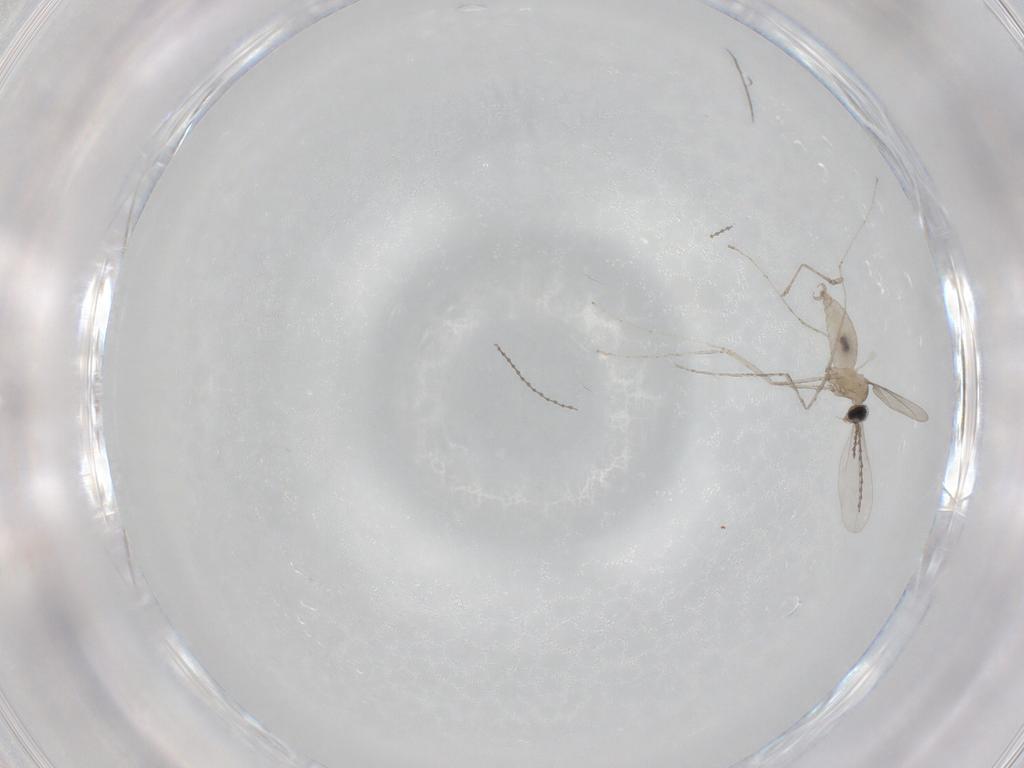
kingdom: Animalia
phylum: Arthropoda
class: Insecta
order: Diptera
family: Cecidomyiidae
